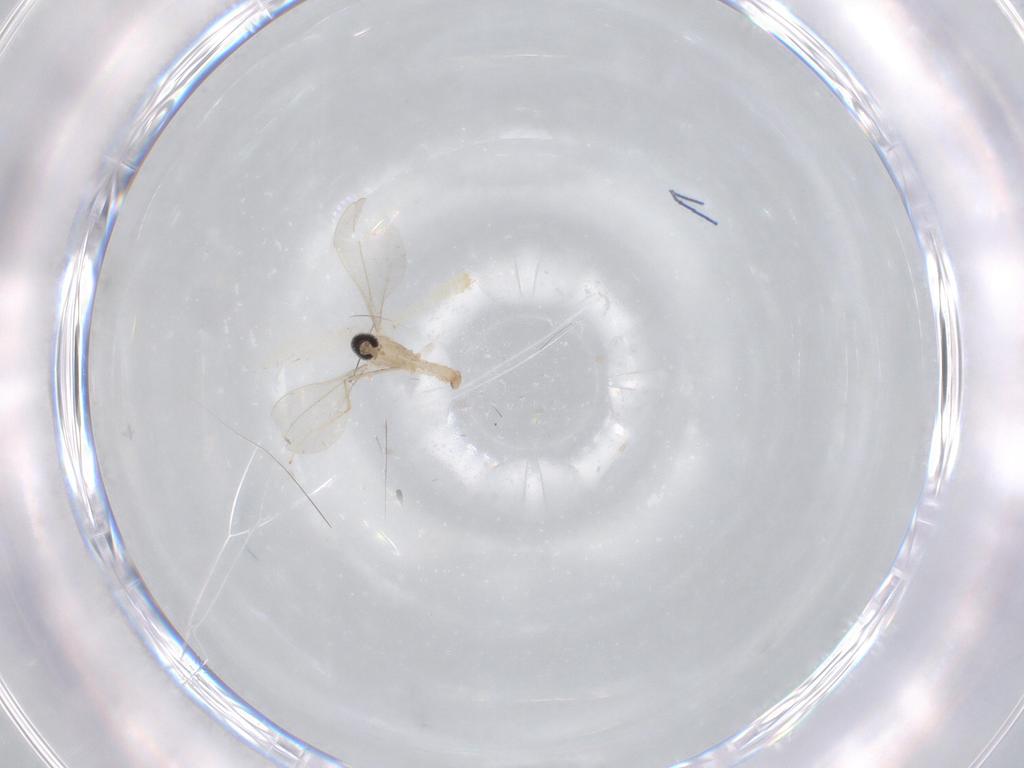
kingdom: Animalia
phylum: Arthropoda
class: Insecta
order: Diptera
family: Cecidomyiidae
